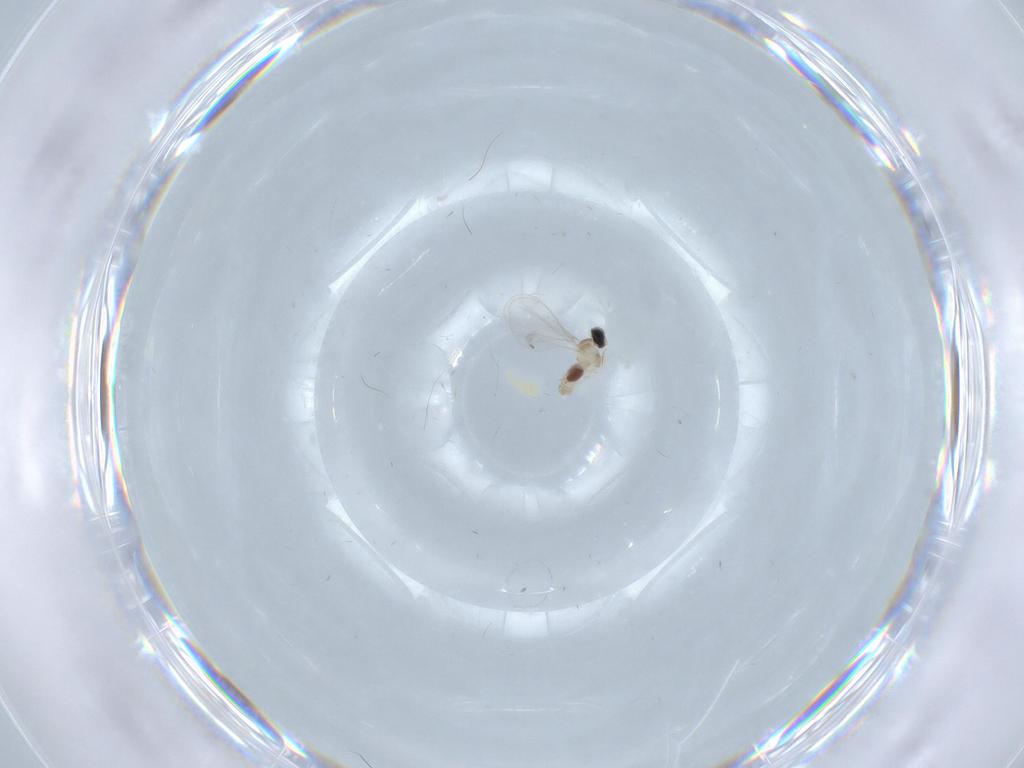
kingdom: Animalia
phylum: Arthropoda
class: Insecta
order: Diptera
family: Cecidomyiidae
